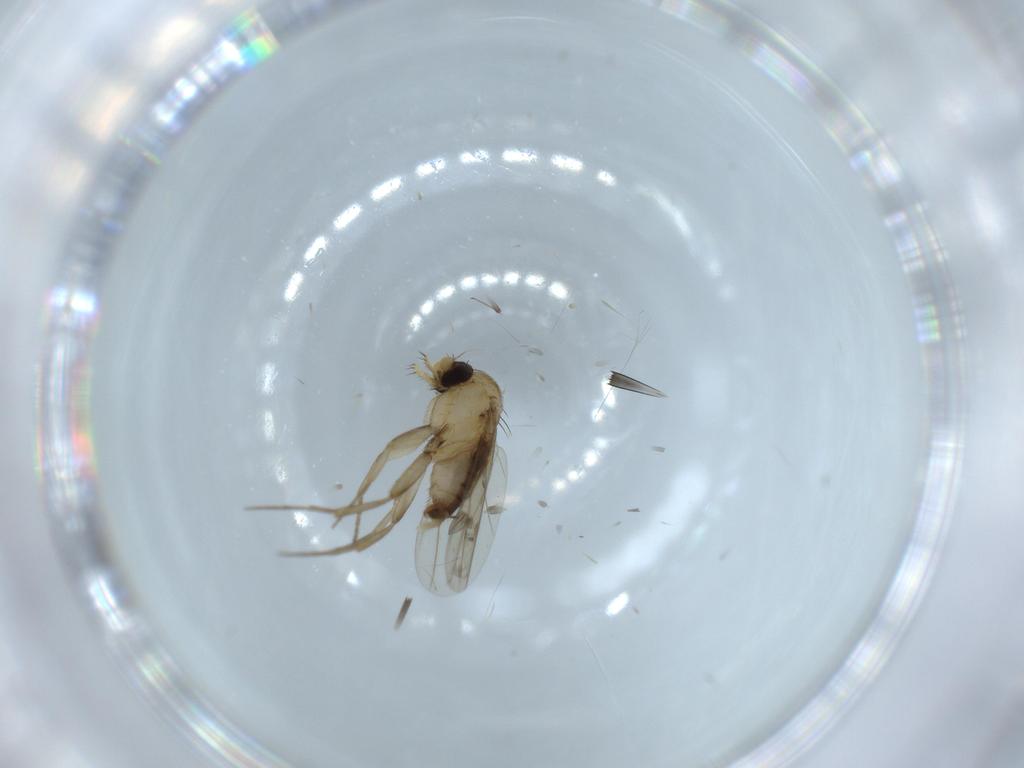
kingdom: Animalia
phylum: Arthropoda
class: Insecta
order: Diptera
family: Phoridae
